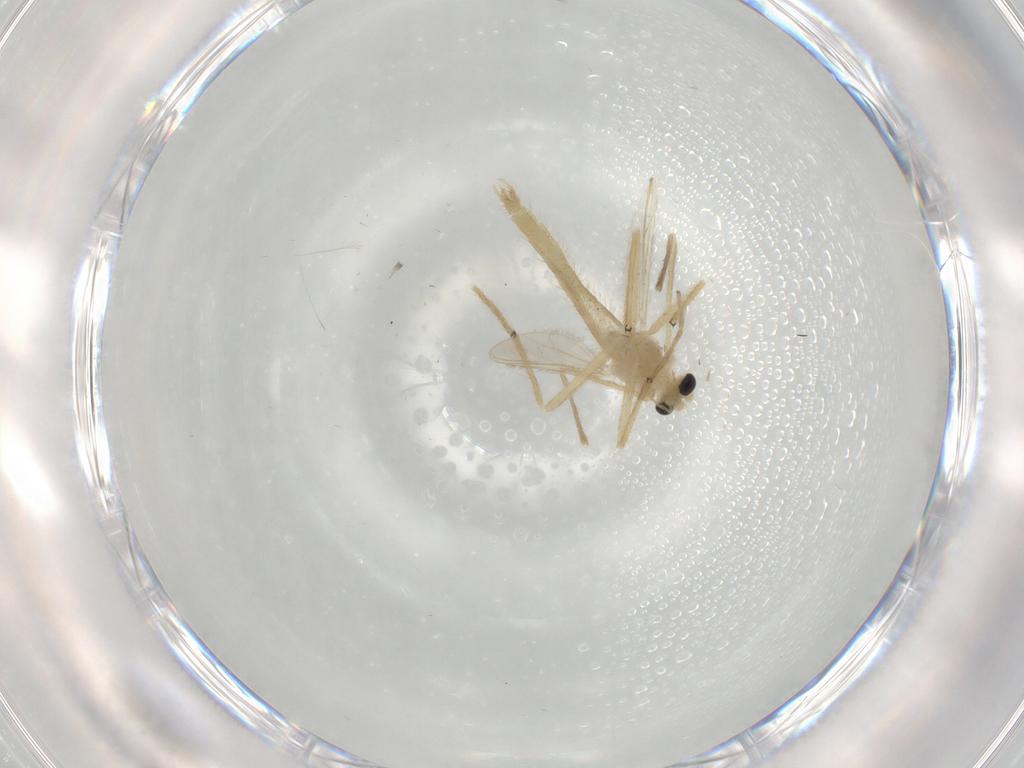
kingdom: Animalia
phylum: Arthropoda
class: Insecta
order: Diptera
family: Chironomidae
